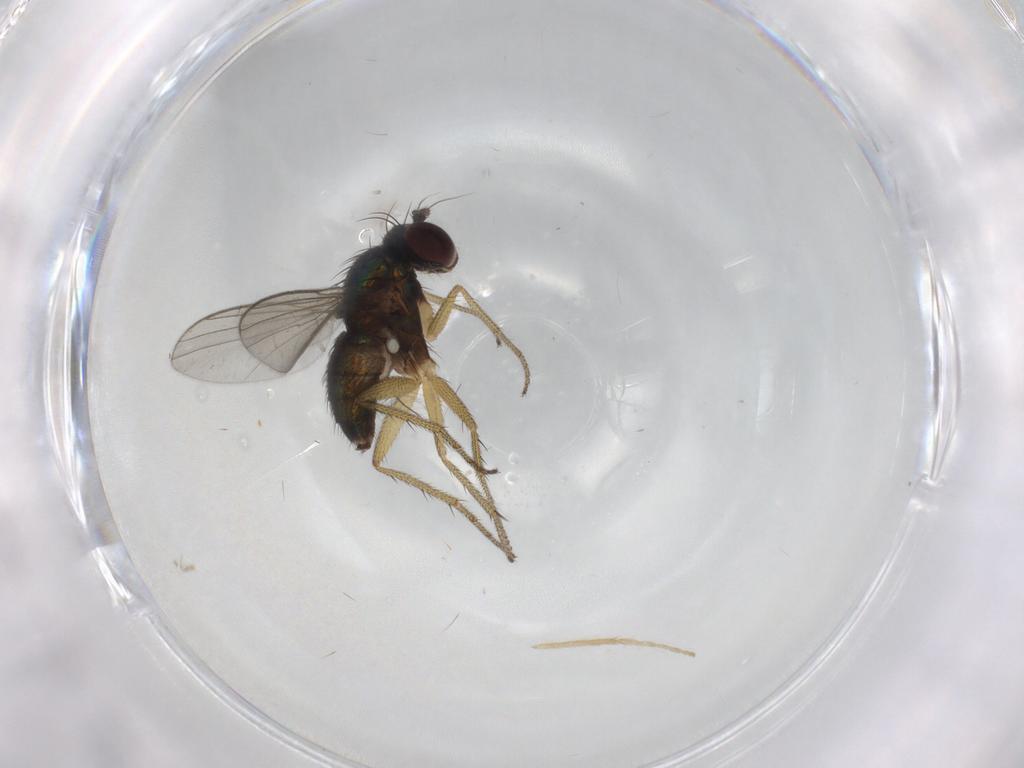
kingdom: Animalia
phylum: Arthropoda
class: Insecta
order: Diptera
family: Dolichopodidae
